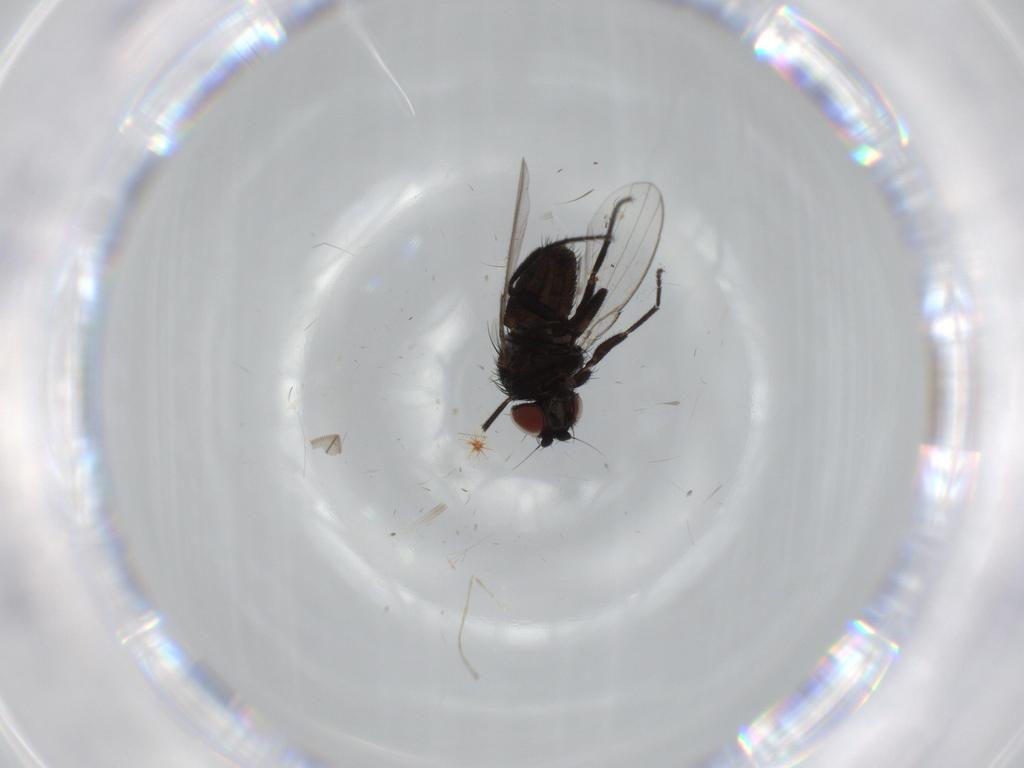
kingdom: Animalia
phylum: Arthropoda
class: Insecta
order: Diptera
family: Milichiidae
